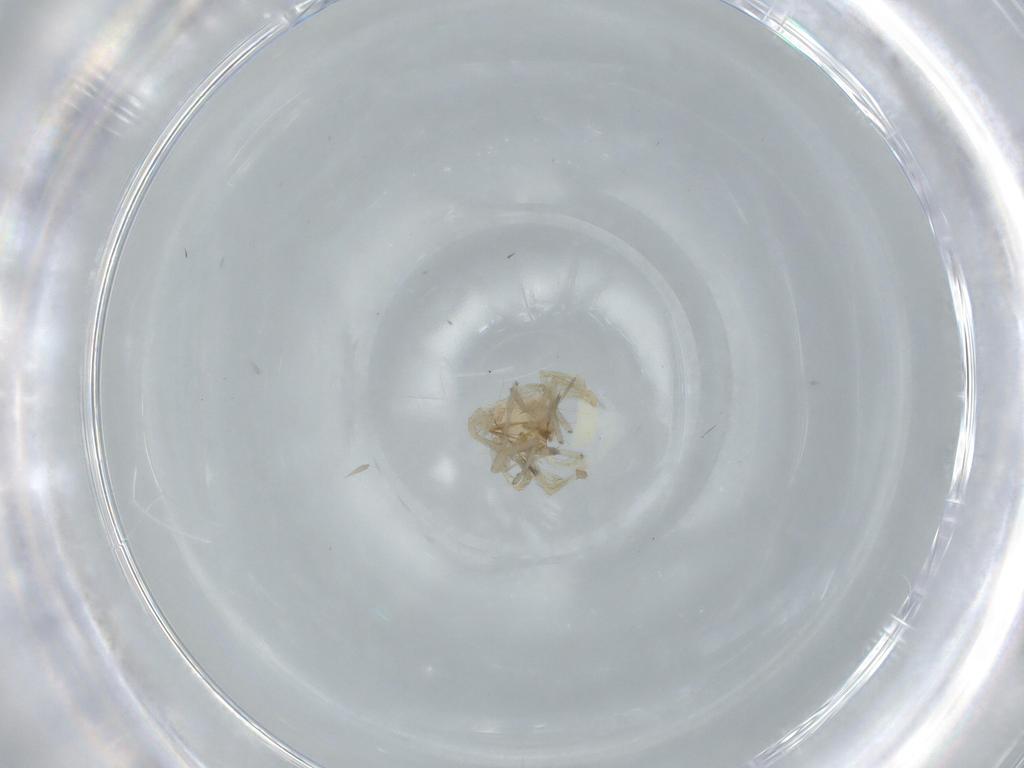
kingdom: Animalia
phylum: Arthropoda
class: Arachnida
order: Araneae
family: Oonopidae
